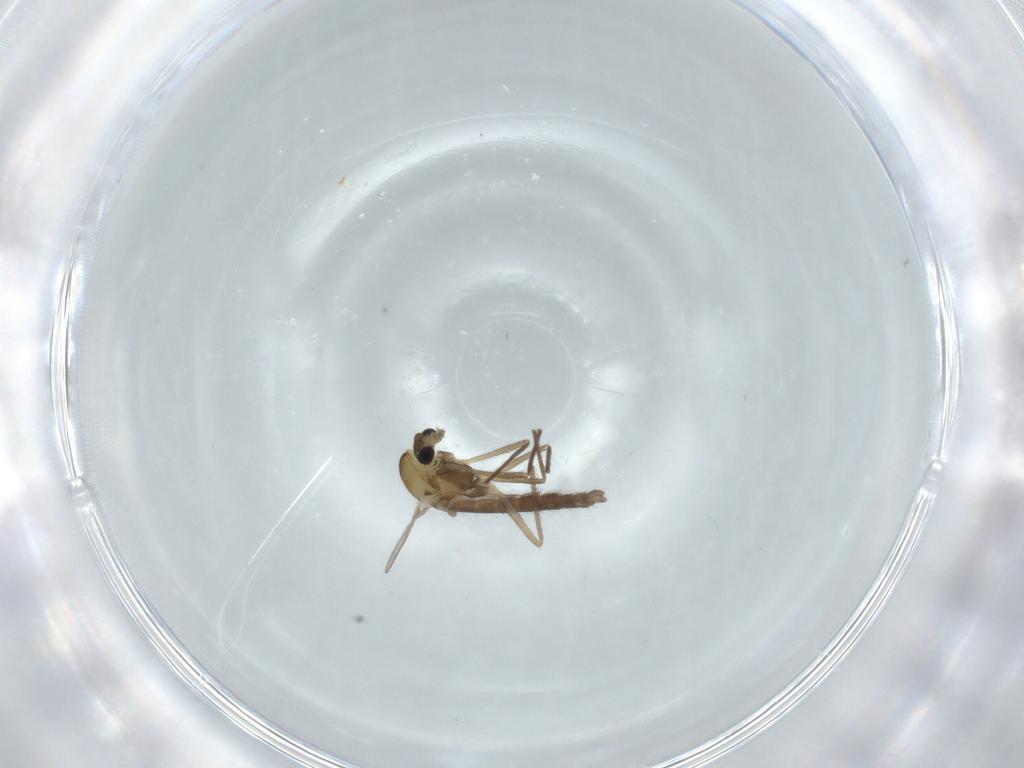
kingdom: Animalia
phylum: Arthropoda
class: Insecta
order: Diptera
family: Chironomidae
